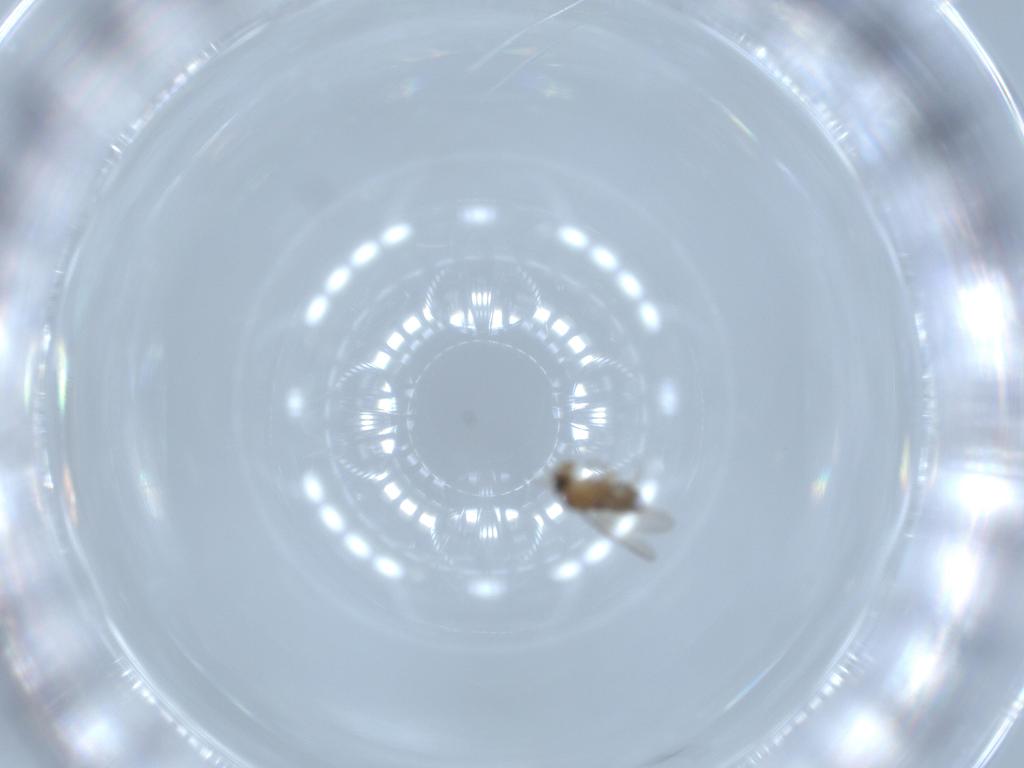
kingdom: Animalia
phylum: Arthropoda
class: Insecta
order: Diptera
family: Phoridae
